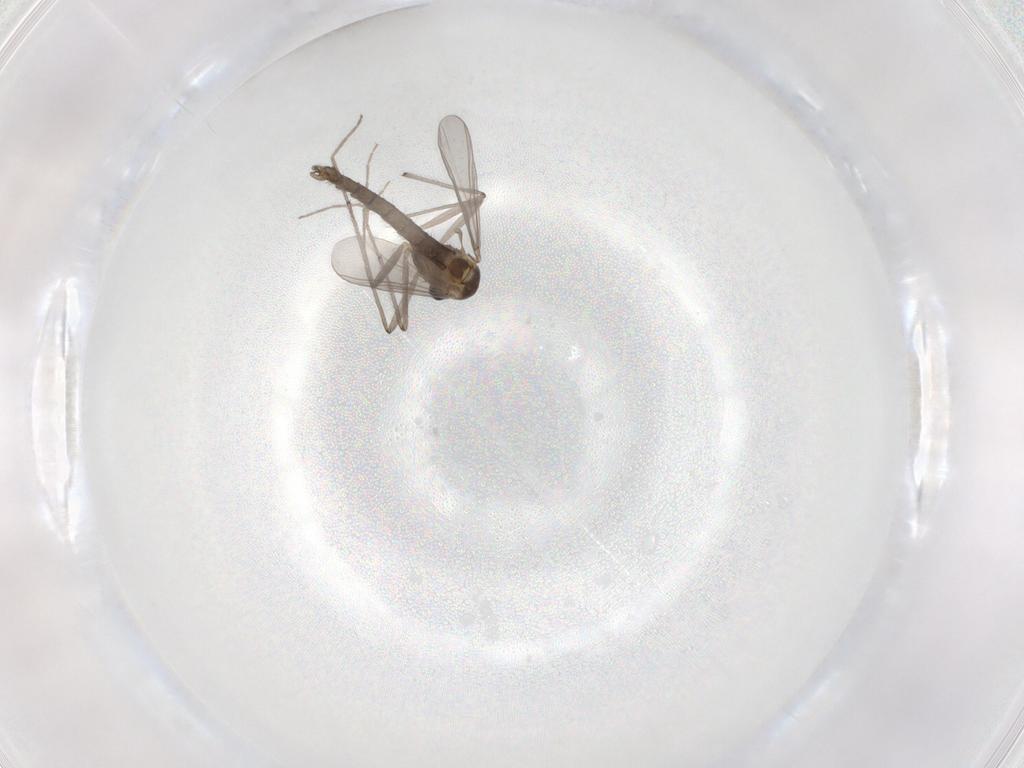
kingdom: Animalia
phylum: Arthropoda
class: Insecta
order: Diptera
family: Chironomidae
